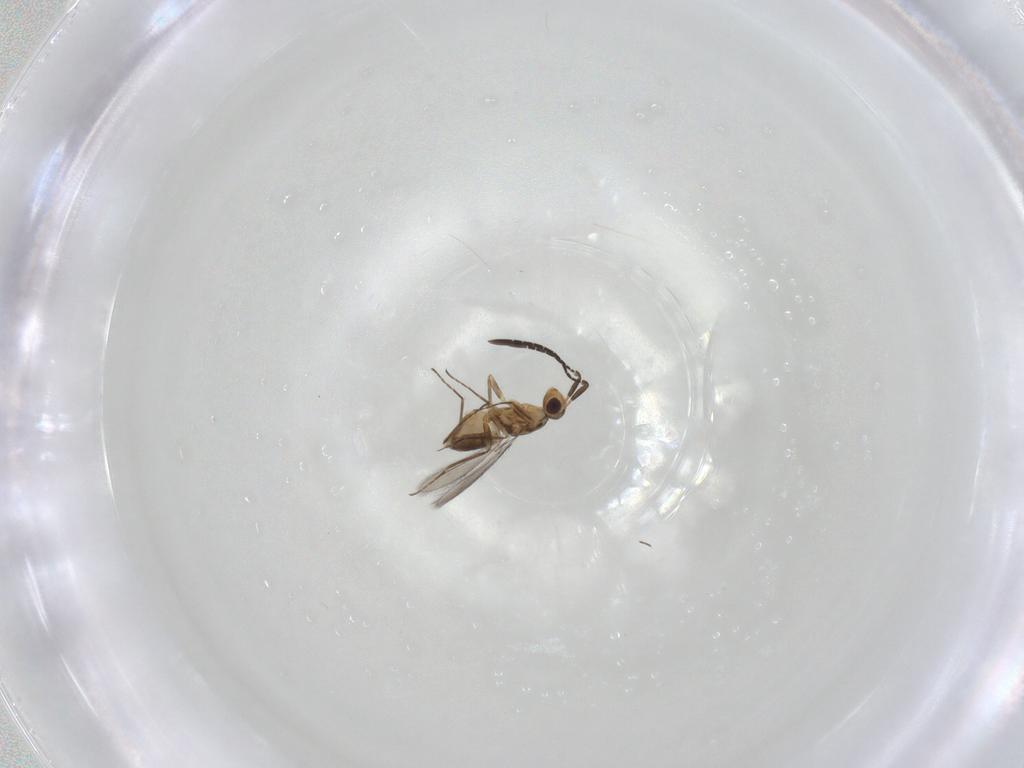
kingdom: Animalia
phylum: Arthropoda
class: Insecta
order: Hymenoptera
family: Mymaridae
